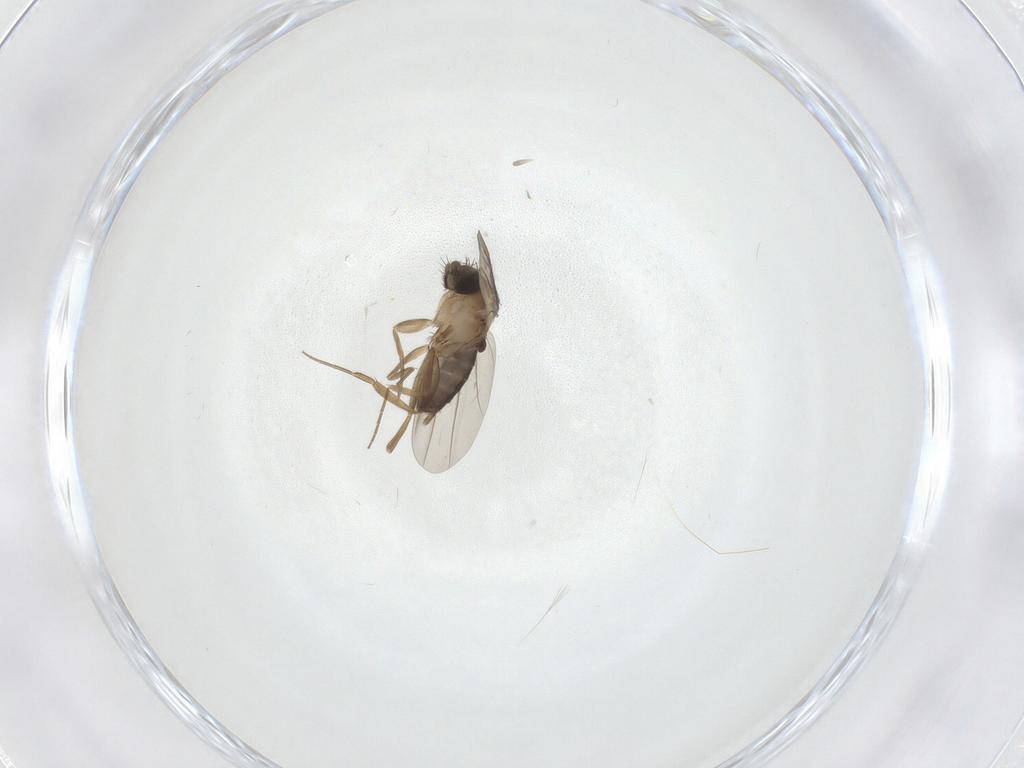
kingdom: Animalia
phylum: Arthropoda
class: Insecta
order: Diptera
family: Phoridae
